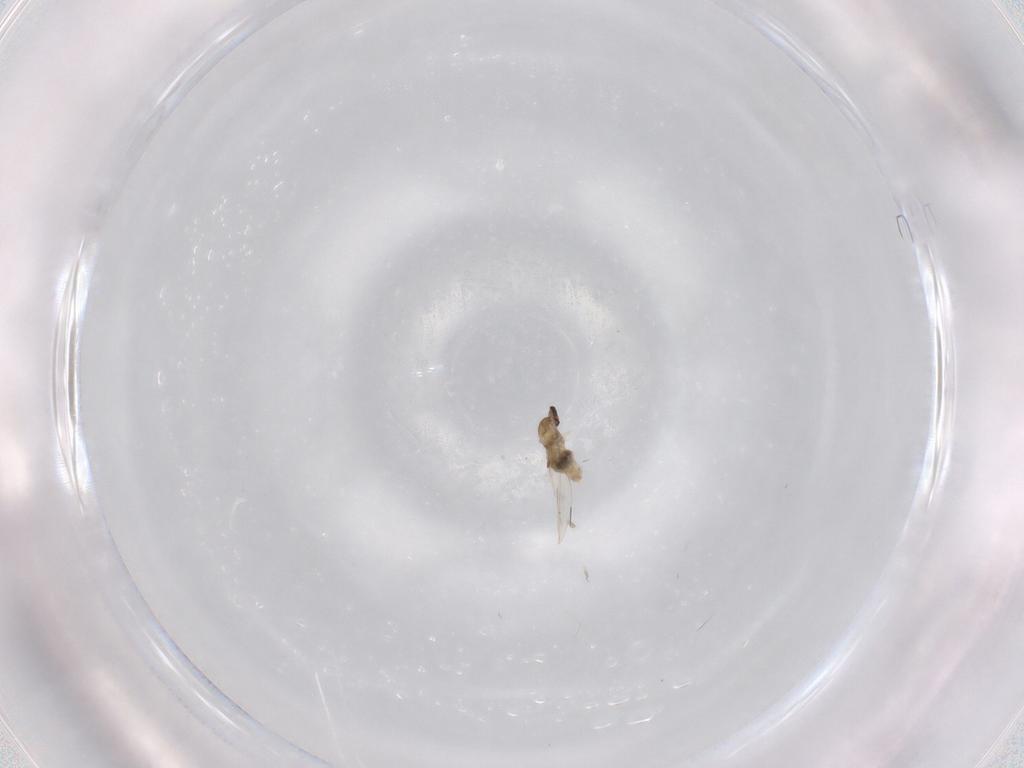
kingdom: Animalia
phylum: Arthropoda
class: Insecta
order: Diptera
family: Cecidomyiidae
